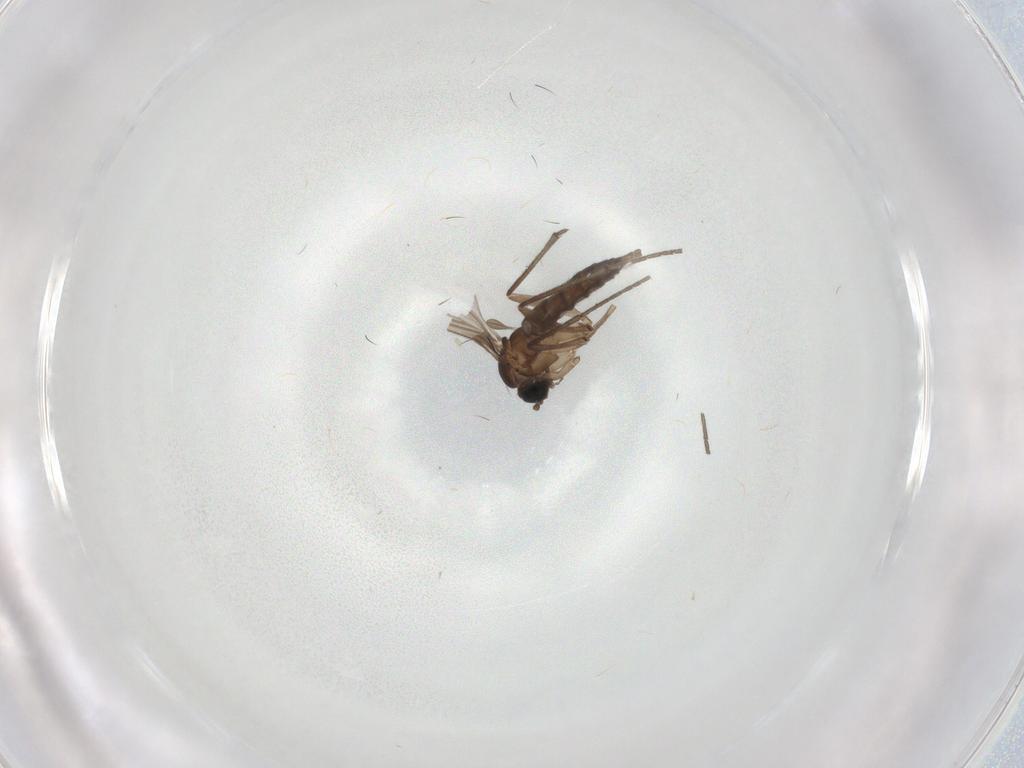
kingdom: Animalia
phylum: Arthropoda
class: Insecta
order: Diptera
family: Sciaridae
